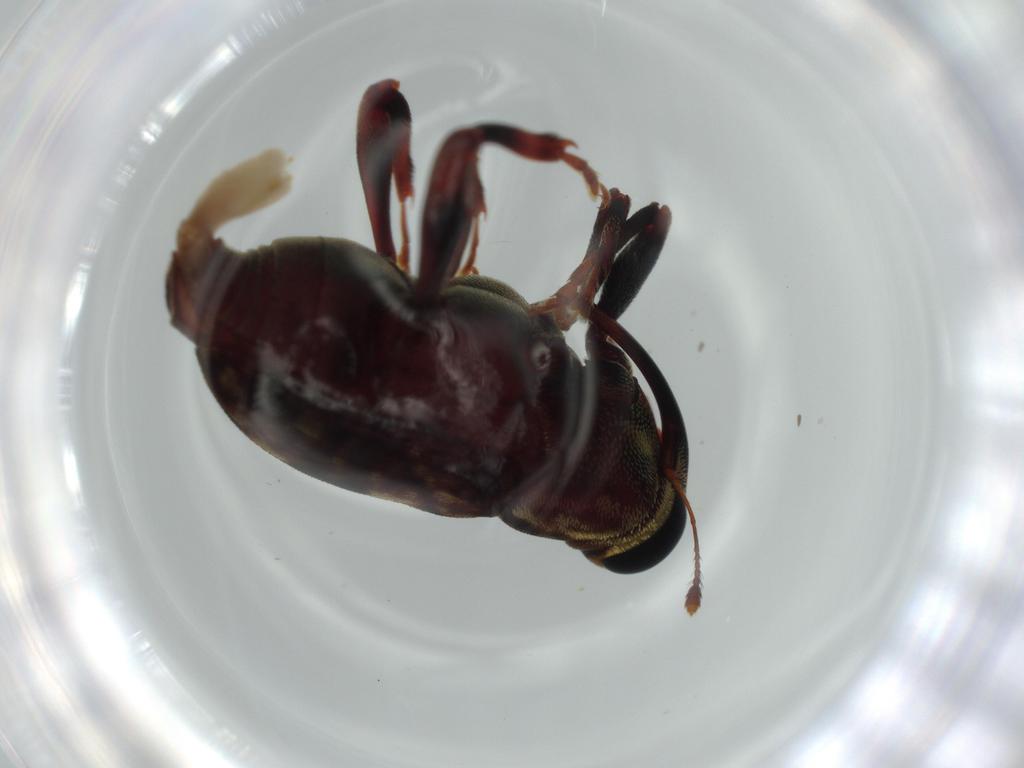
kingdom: Animalia
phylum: Arthropoda
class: Insecta
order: Coleoptera
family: Curculionidae
